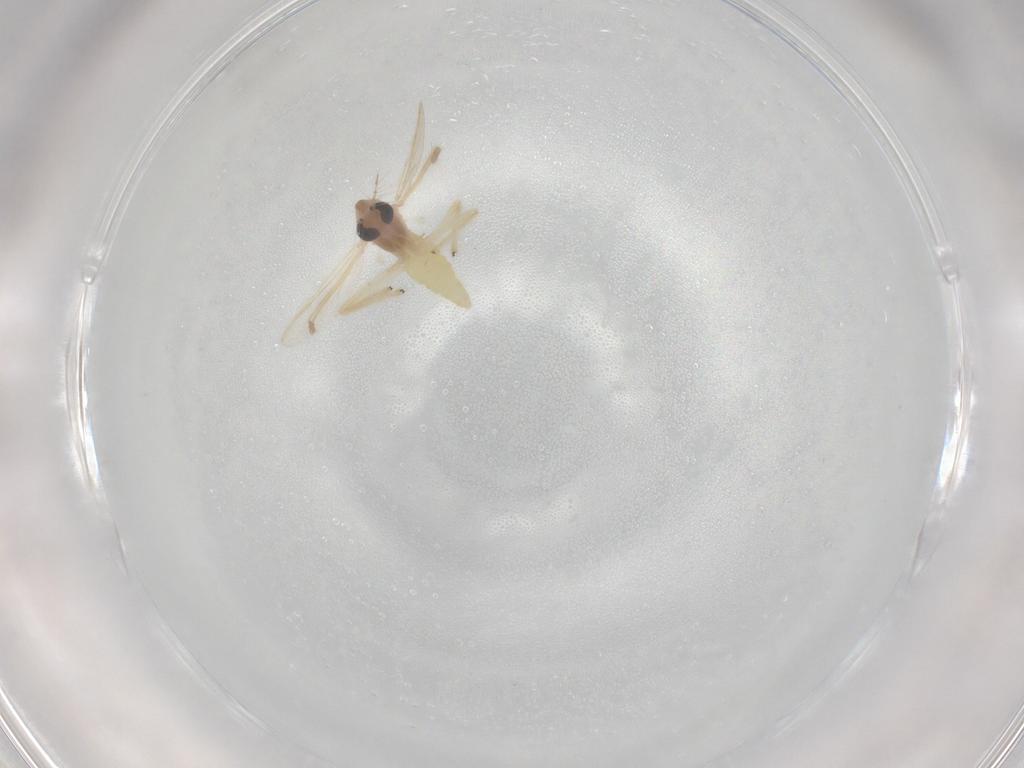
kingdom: Animalia
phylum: Arthropoda
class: Insecta
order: Diptera
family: Chironomidae
